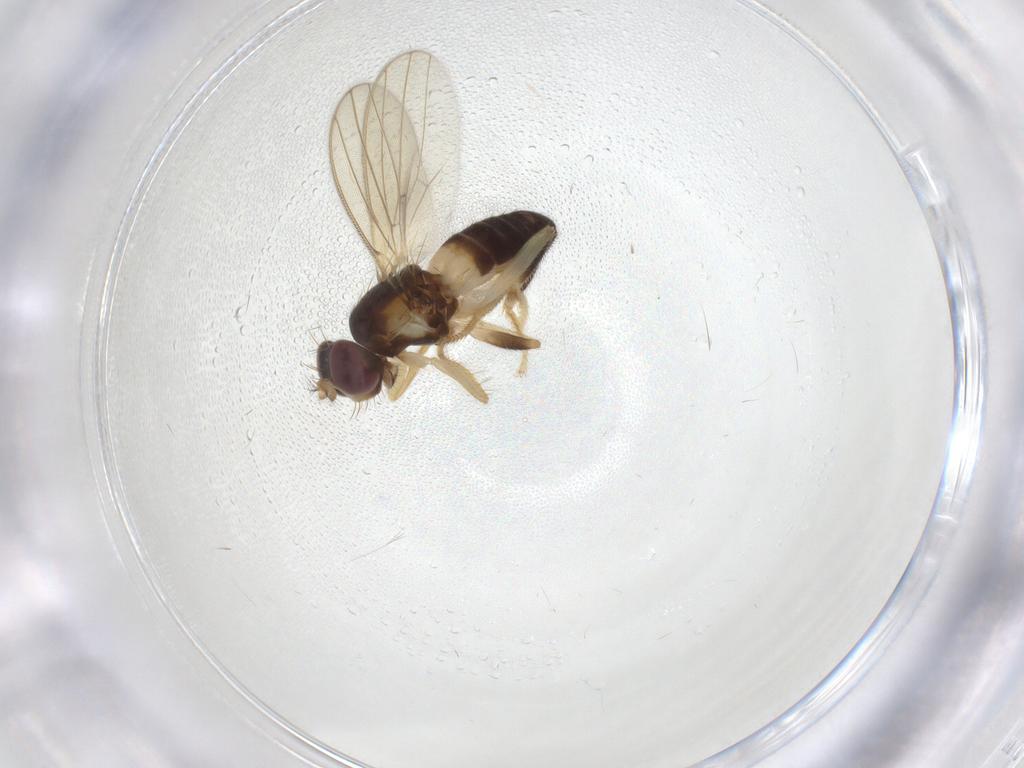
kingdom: Animalia
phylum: Arthropoda
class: Insecta
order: Diptera
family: Periscelididae
